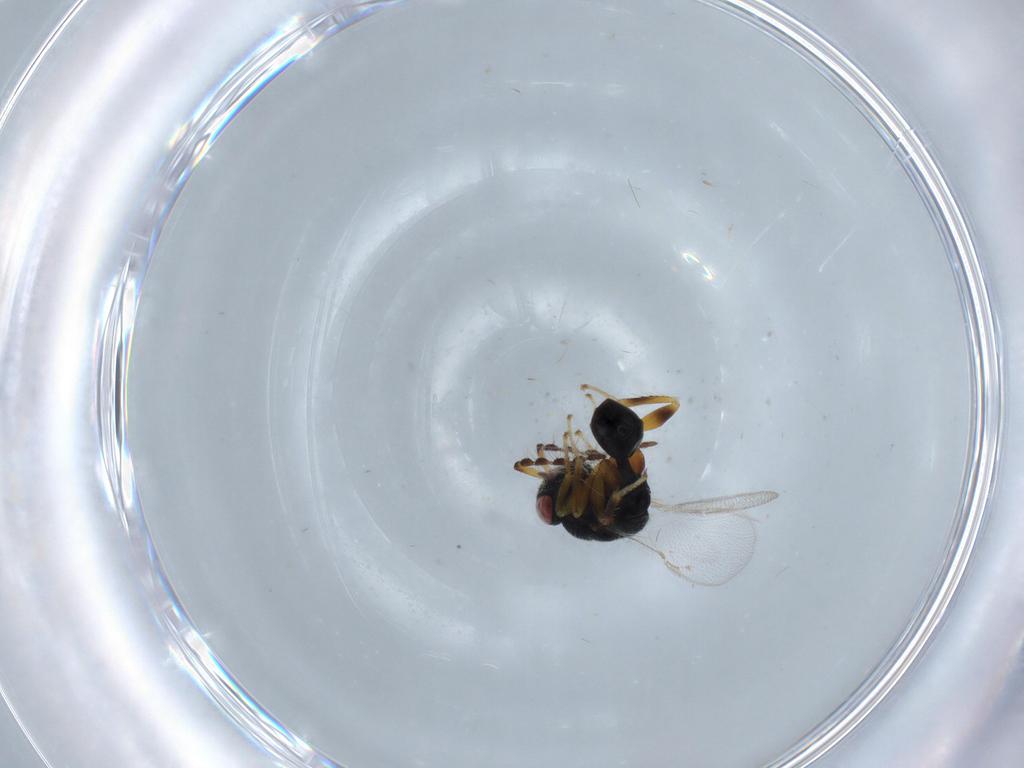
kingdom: Animalia
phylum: Arthropoda
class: Insecta
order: Hymenoptera
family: Eurytomidae
